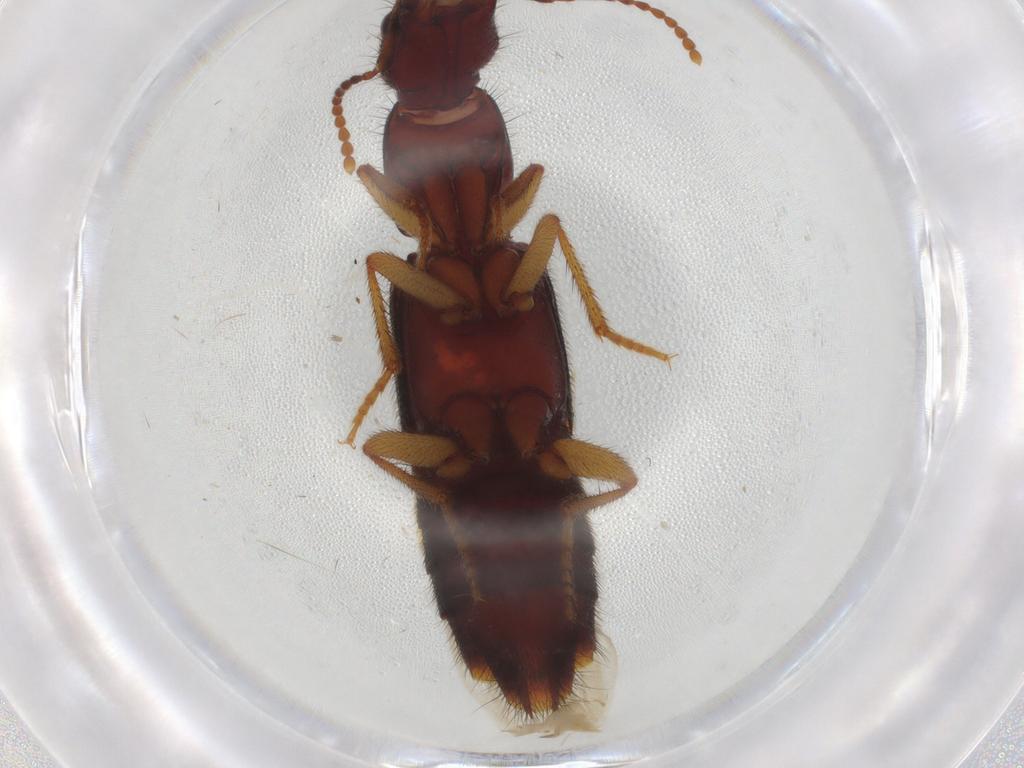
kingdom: Animalia
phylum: Arthropoda
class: Insecta
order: Coleoptera
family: Staphylinidae
